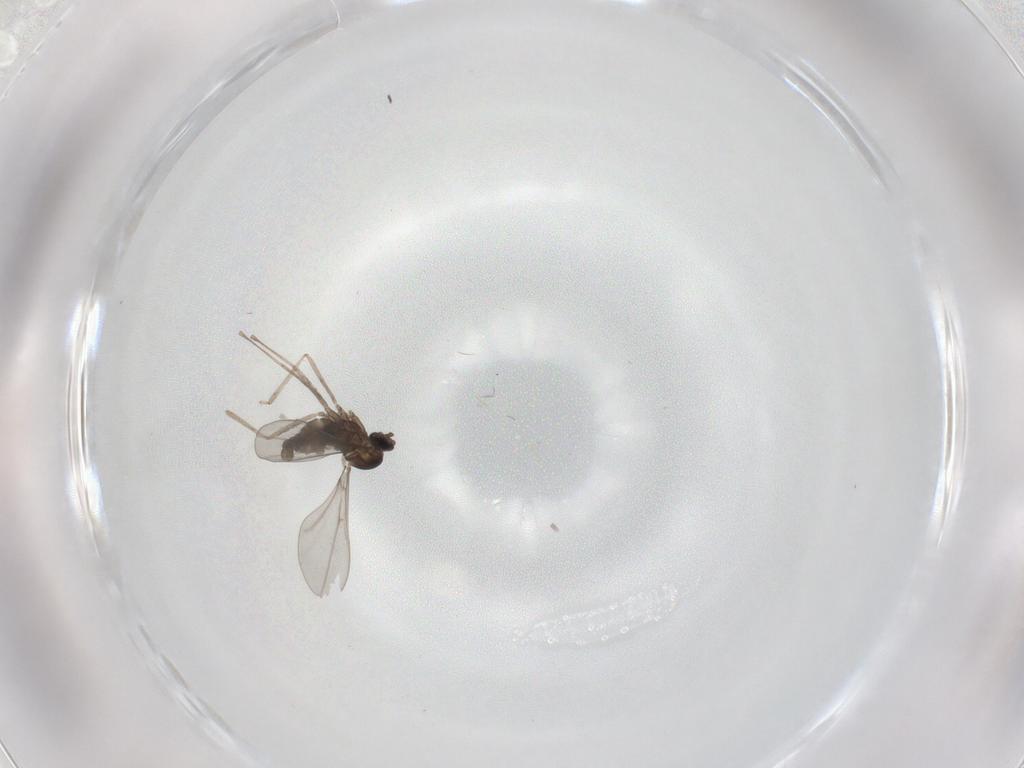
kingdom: Animalia
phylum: Arthropoda
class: Insecta
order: Diptera
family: Cecidomyiidae
